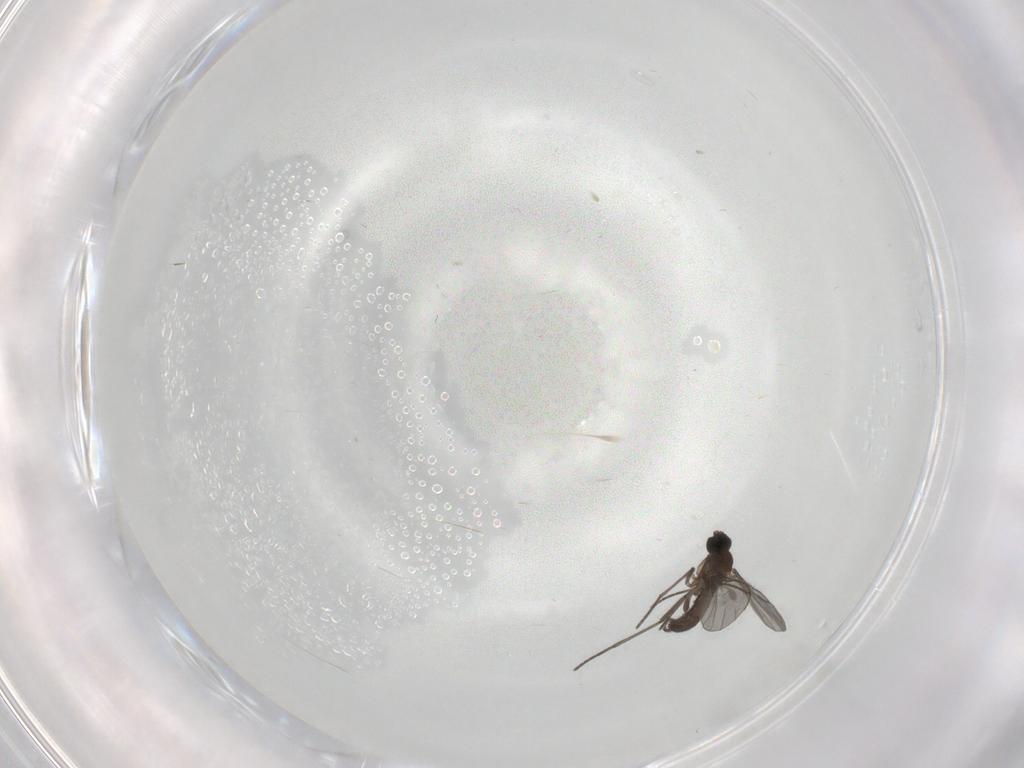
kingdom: Animalia
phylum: Arthropoda
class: Insecta
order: Diptera
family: Sciaridae
